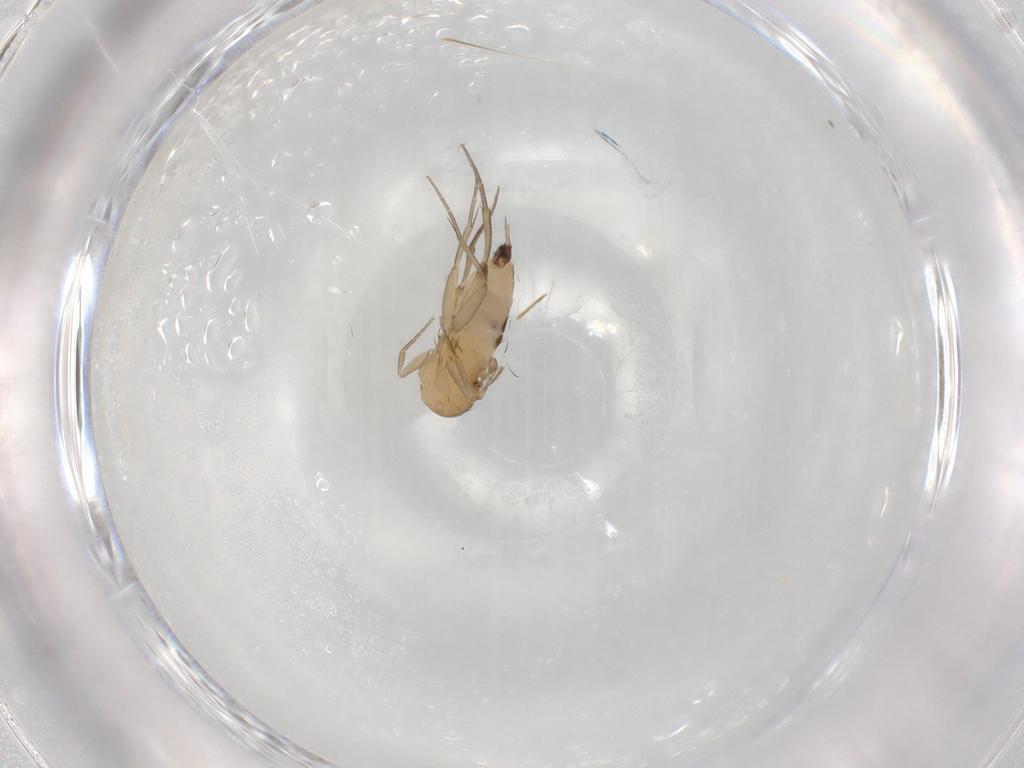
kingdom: Animalia
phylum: Arthropoda
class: Insecta
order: Diptera
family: Phoridae
